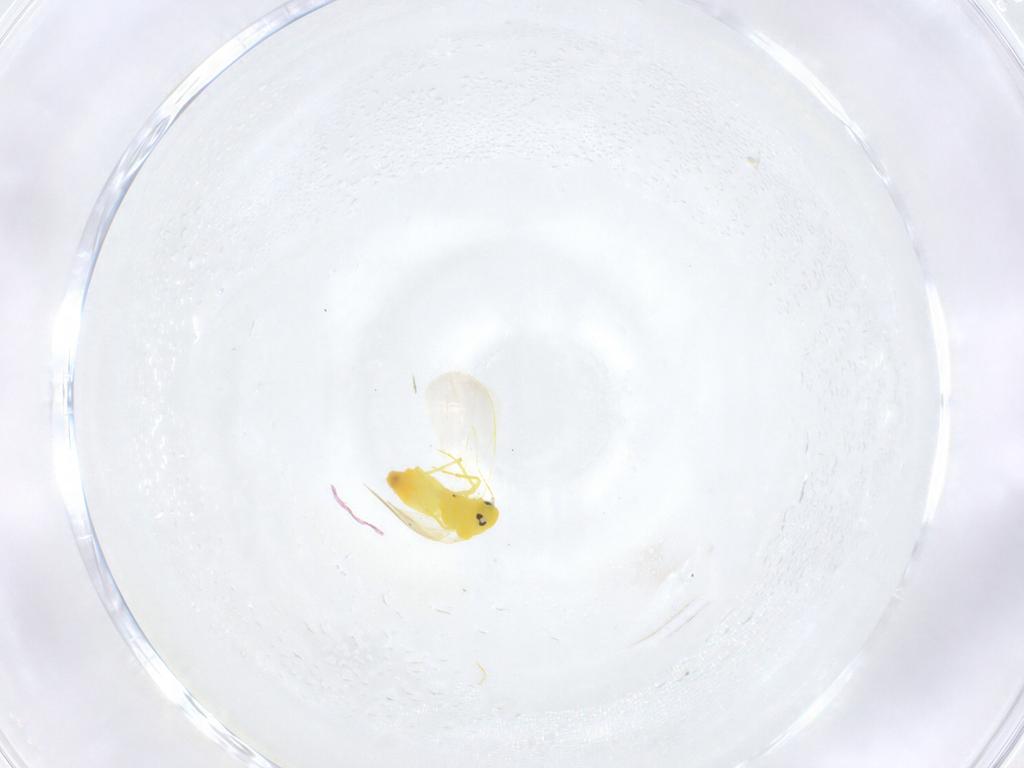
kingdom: Animalia
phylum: Arthropoda
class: Insecta
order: Hemiptera
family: Aleyrodidae
